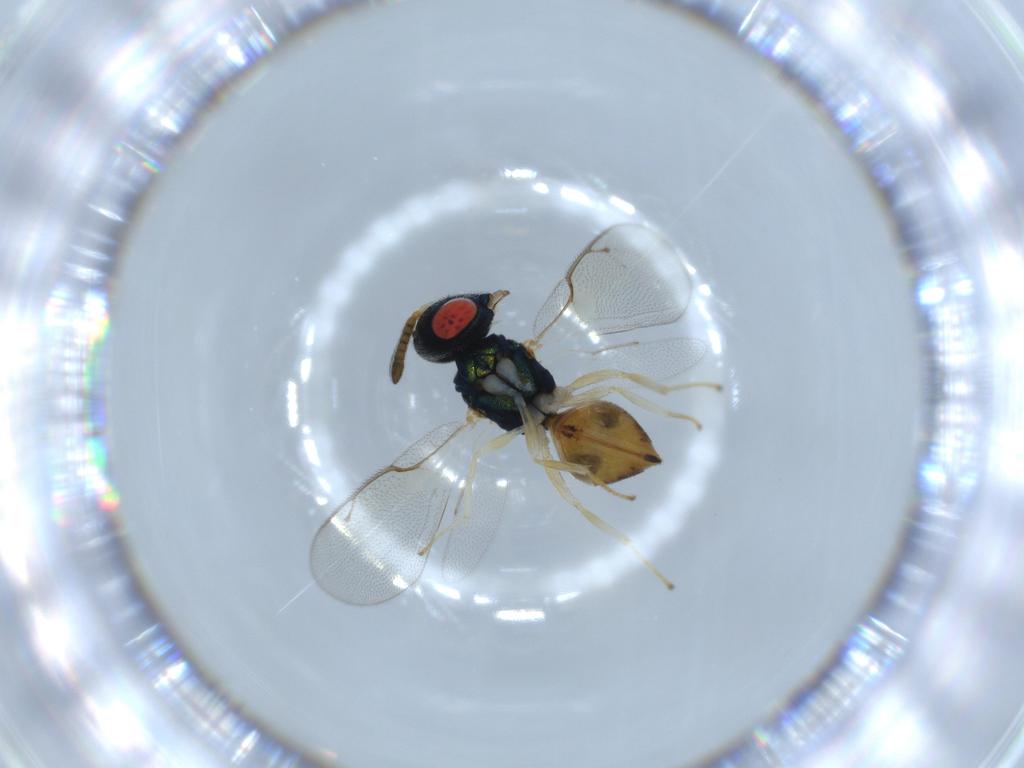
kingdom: Animalia
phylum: Arthropoda
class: Insecta
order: Hymenoptera
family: Pteromalidae
